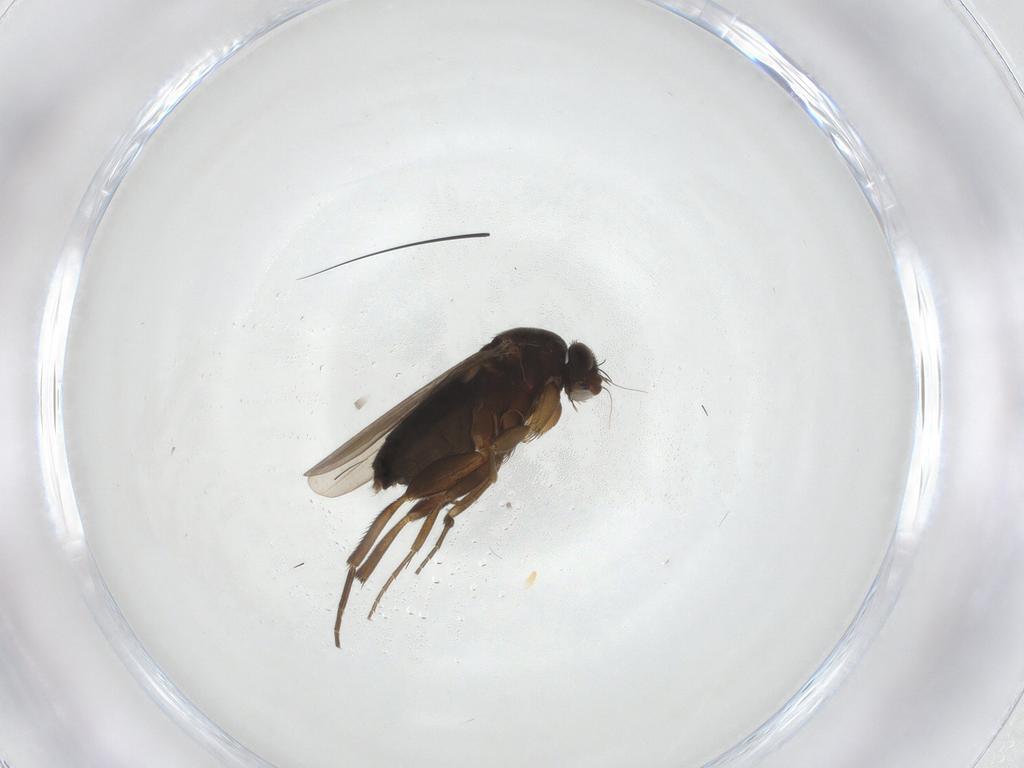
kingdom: Animalia
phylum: Arthropoda
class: Insecta
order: Diptera
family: Phoridae
